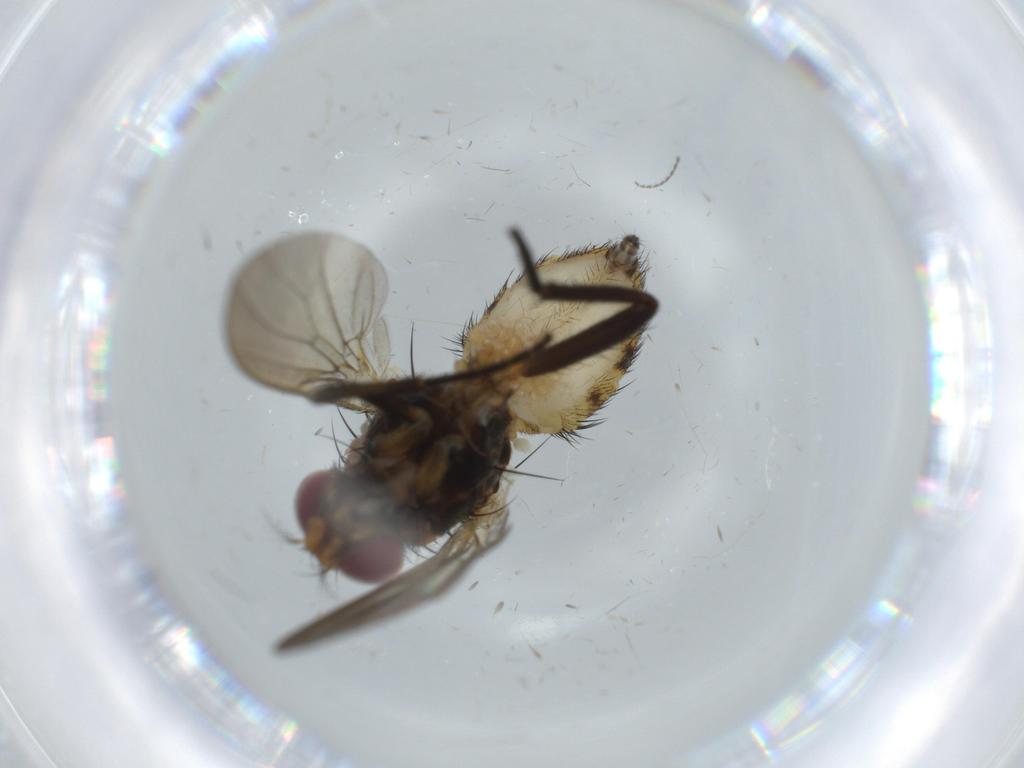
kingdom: Animalia
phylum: Arthropoda
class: Insecta
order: Diptera
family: Anthomyiidae
